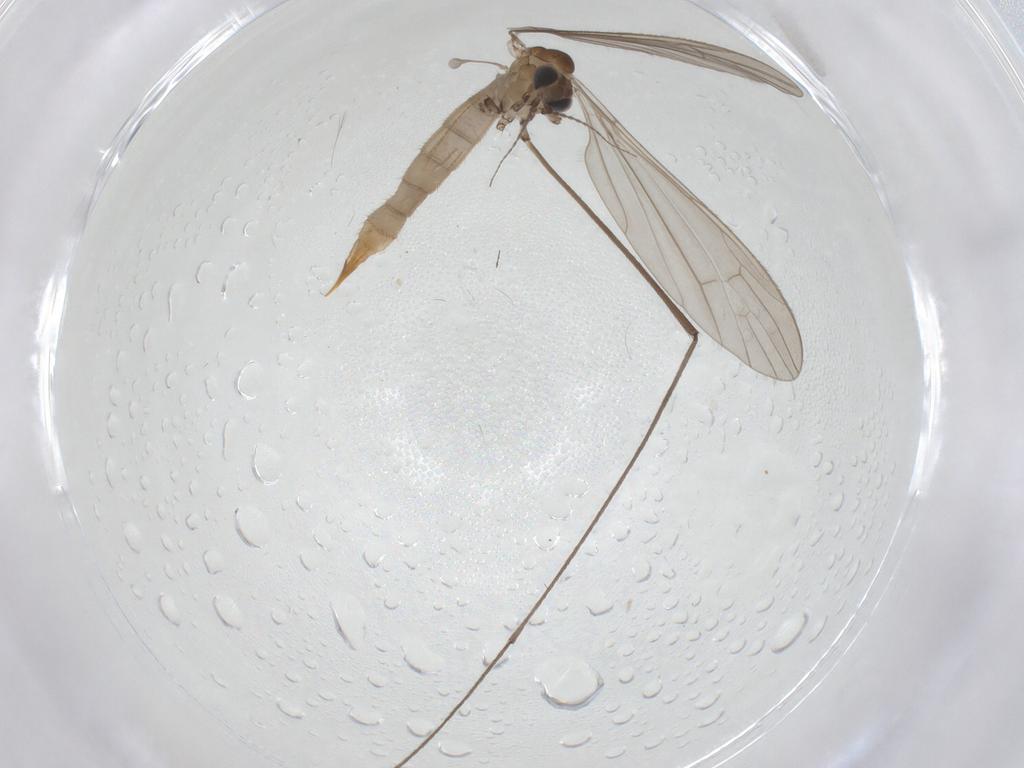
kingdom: Animalia
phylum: Arthropoda
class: Insecta
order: Diptera
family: Limoniidae
